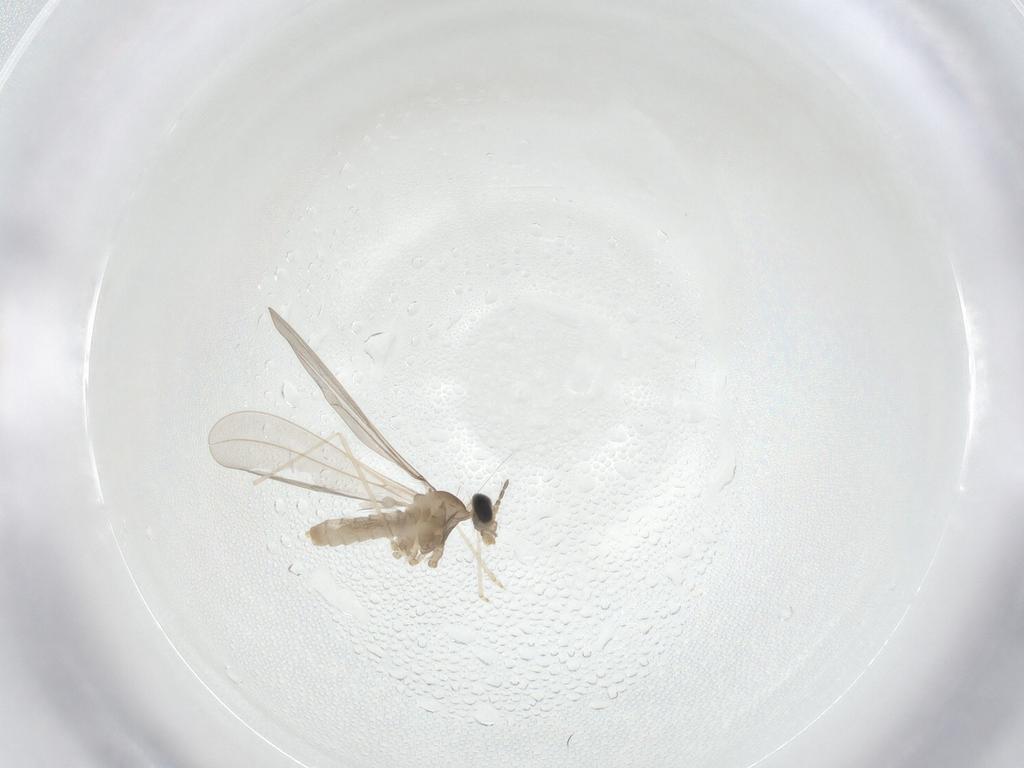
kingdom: Animalia
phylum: Arthropoda
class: Insecta
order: Diptera
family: Cecidomyiidae
